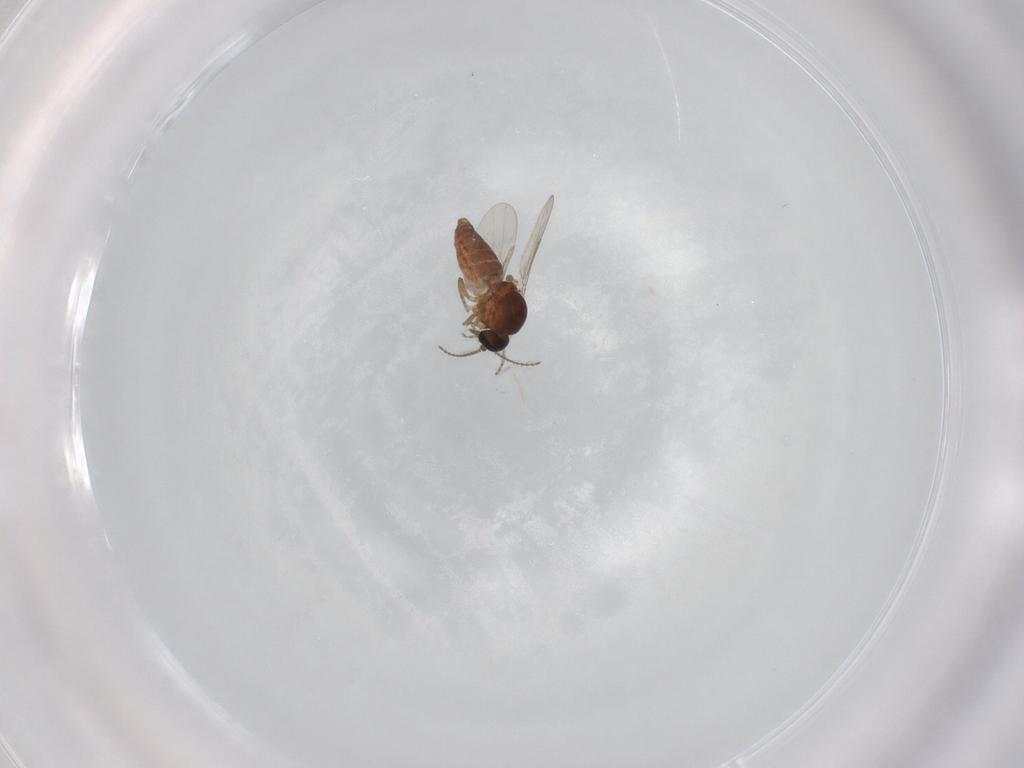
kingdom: Animalia
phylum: Arthropoda
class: Insecta
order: Diptera
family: Ceratopogonidae
